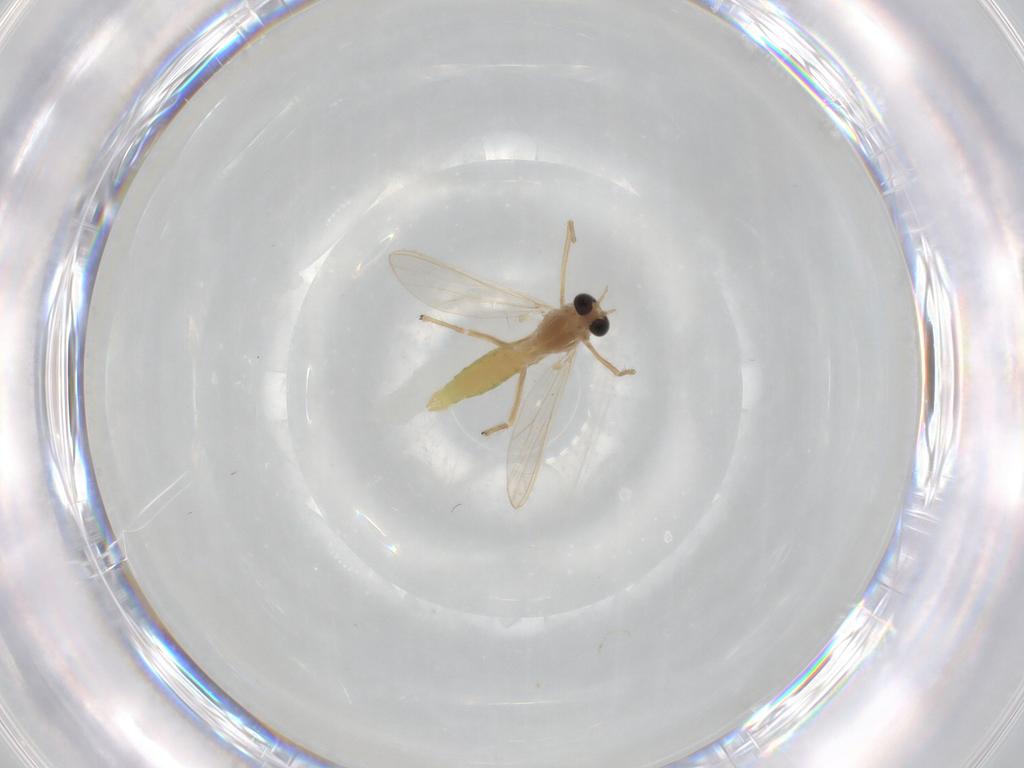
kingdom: Animalia
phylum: Arthropoda
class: Insecta
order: Diptera
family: Chironomidae
